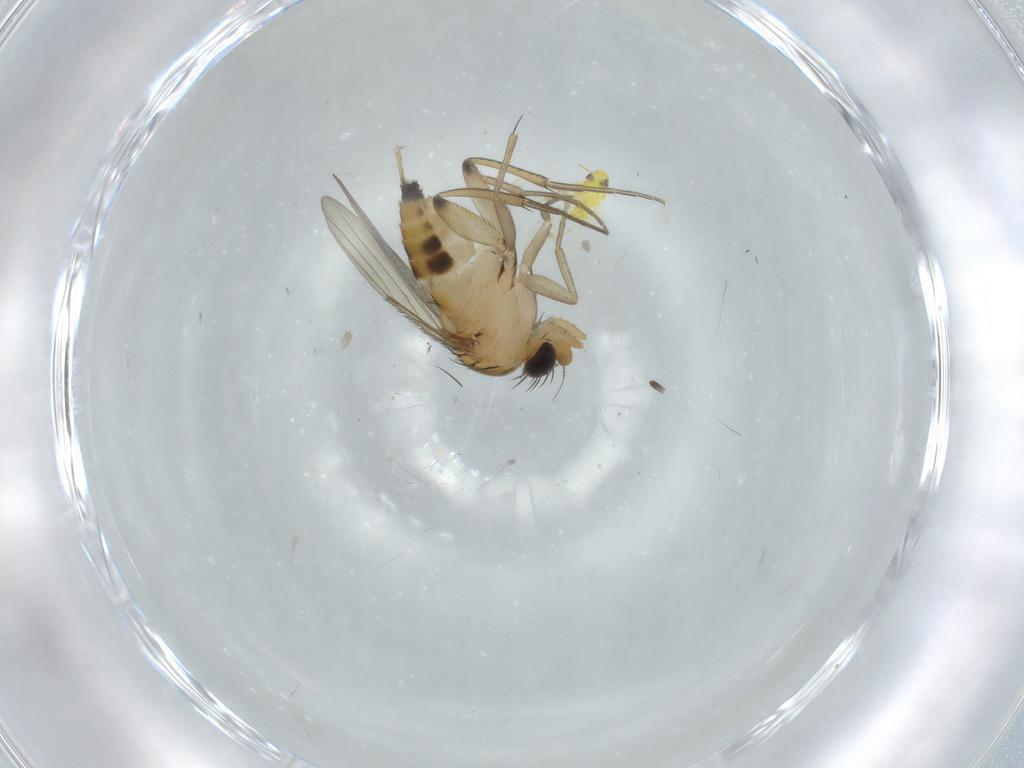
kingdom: Animalia
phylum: Arthropoda
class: Insecta
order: Diptera
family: Phoridae
